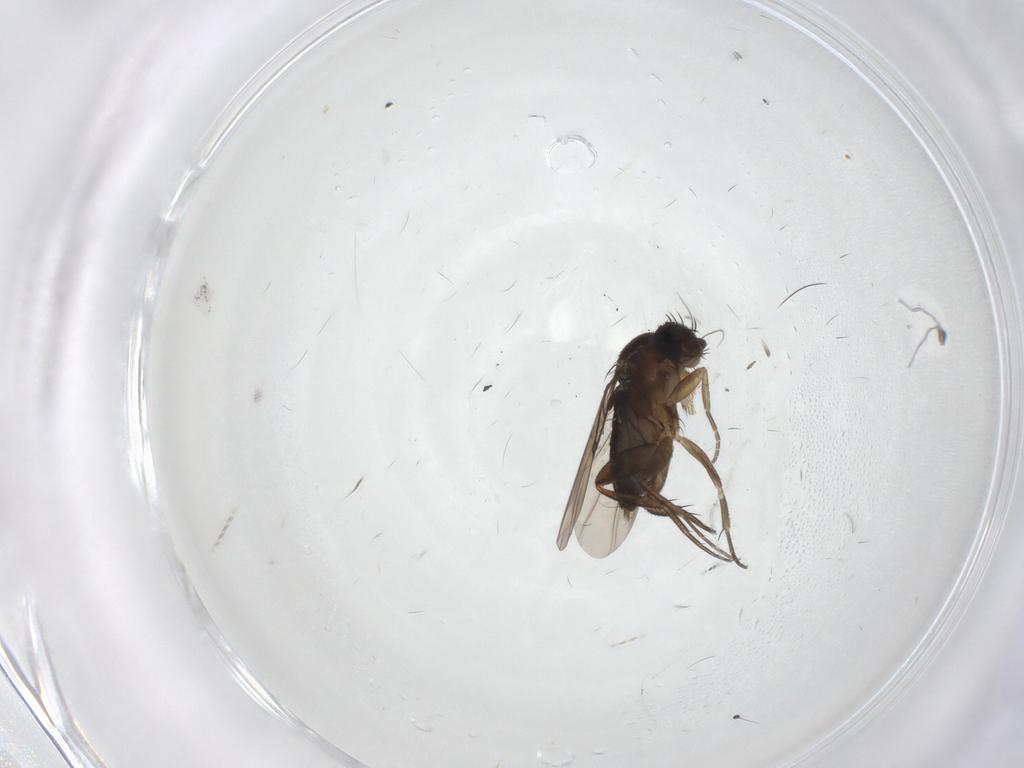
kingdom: Animalia
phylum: Arthropoda
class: Insecta
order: Diptera
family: Phoridae
